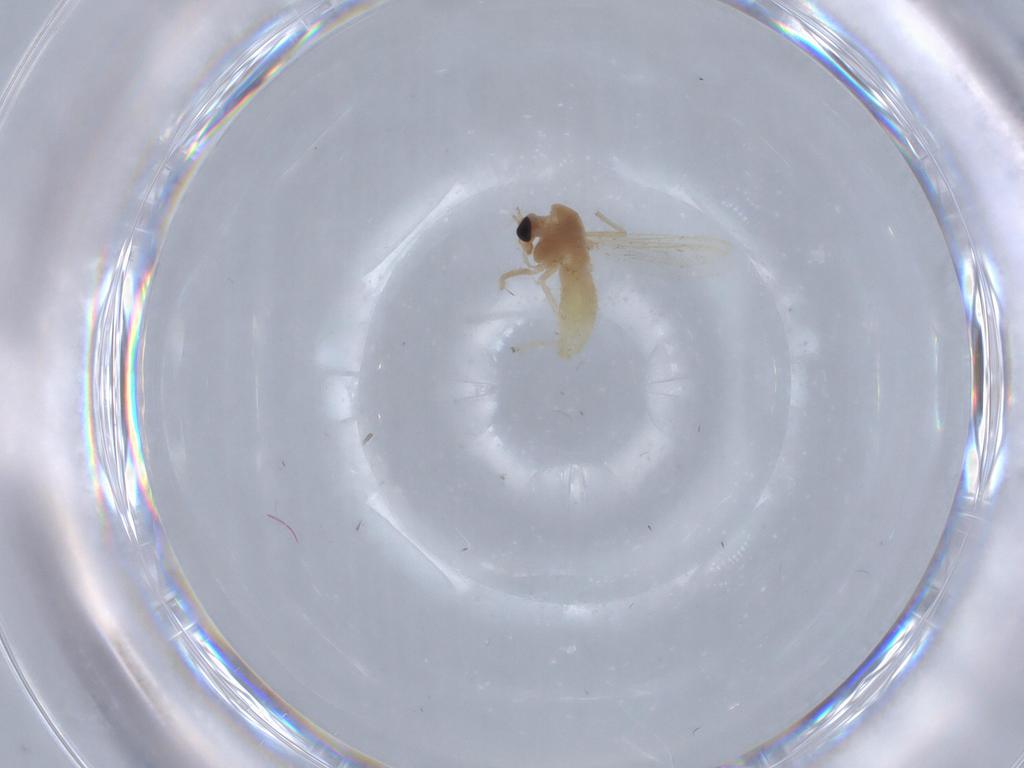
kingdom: Animalia
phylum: Arthropoda
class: Insecta
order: Diptera
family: Chironomidae
